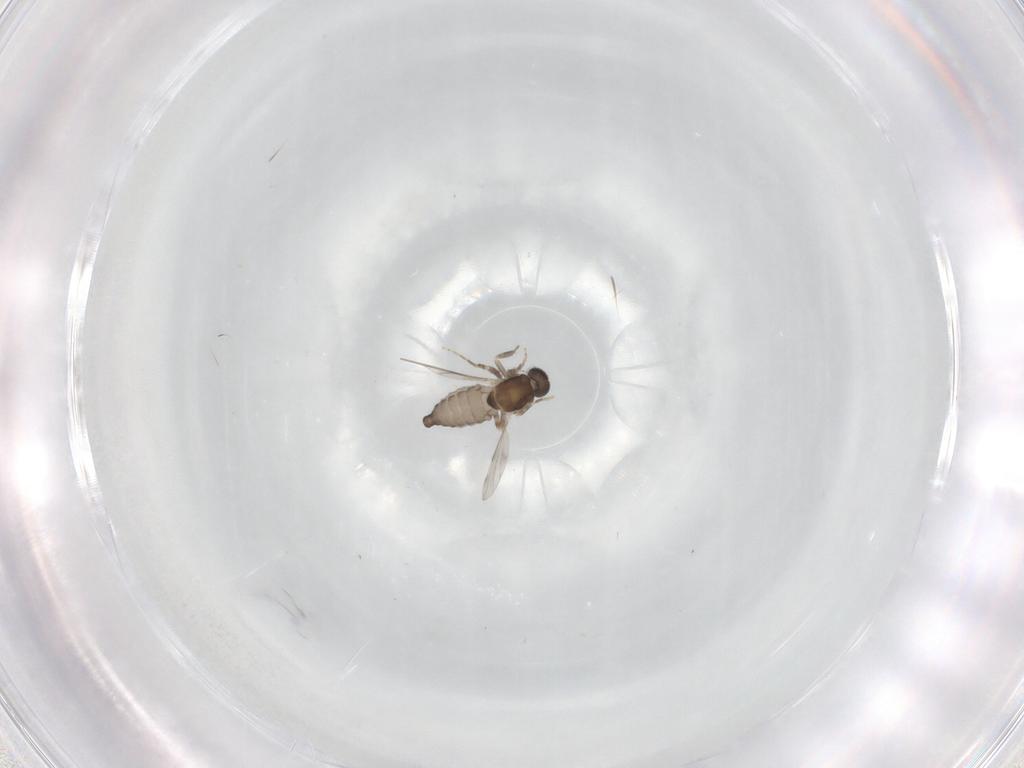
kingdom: Animalia
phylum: Arthropoda
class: Insecta
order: Diptera
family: Ceratopogonidae
